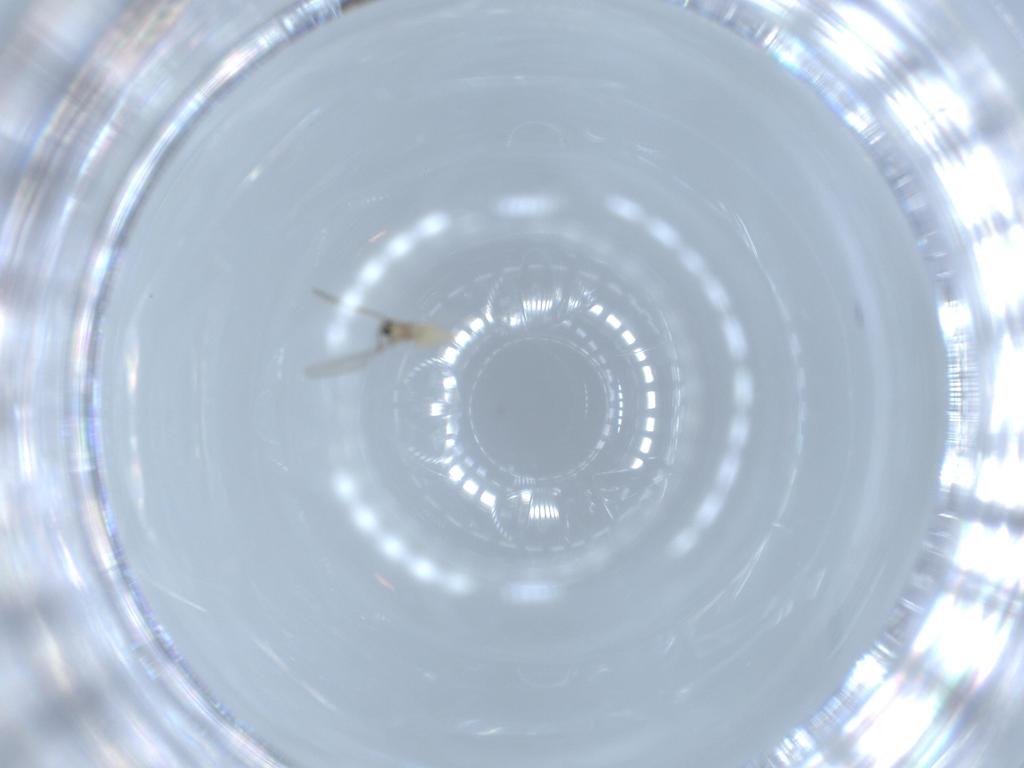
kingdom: Animalia
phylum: Arthropoda
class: Insecta
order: Diptera
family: Cecidomyiidae
